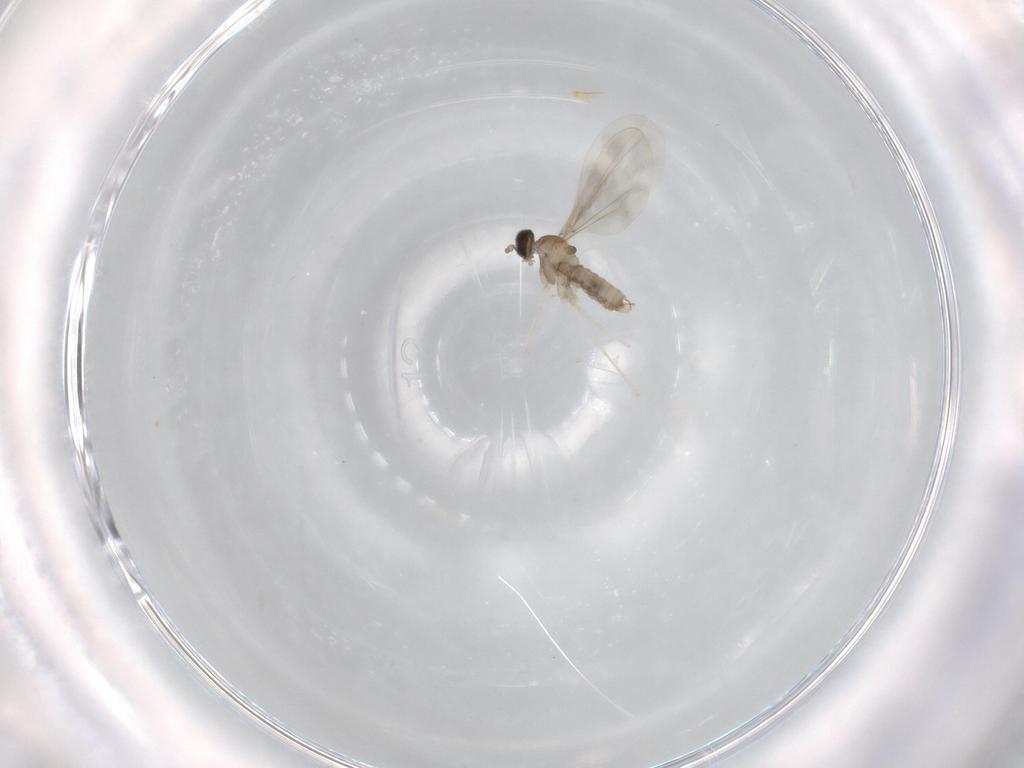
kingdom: Animalia
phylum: Arthropoda
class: Insecta
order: Diptera
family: Cecidomyiidae
